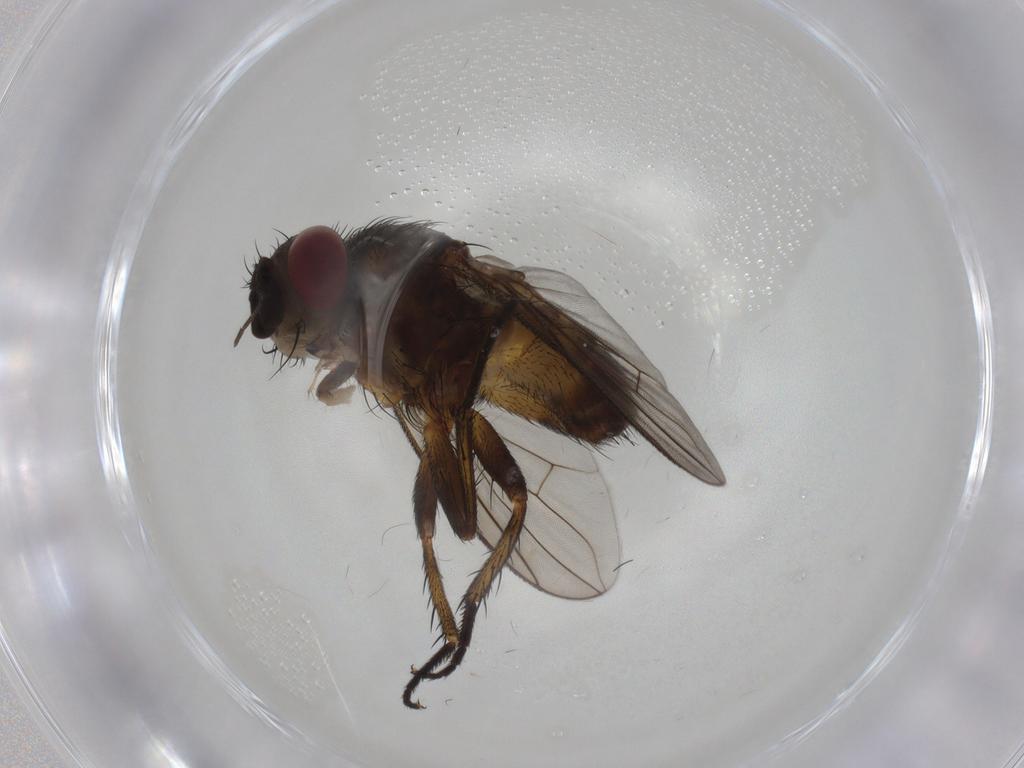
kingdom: Animalia
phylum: Arthropoda
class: Insecta
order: Diptera
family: Tachinidae
